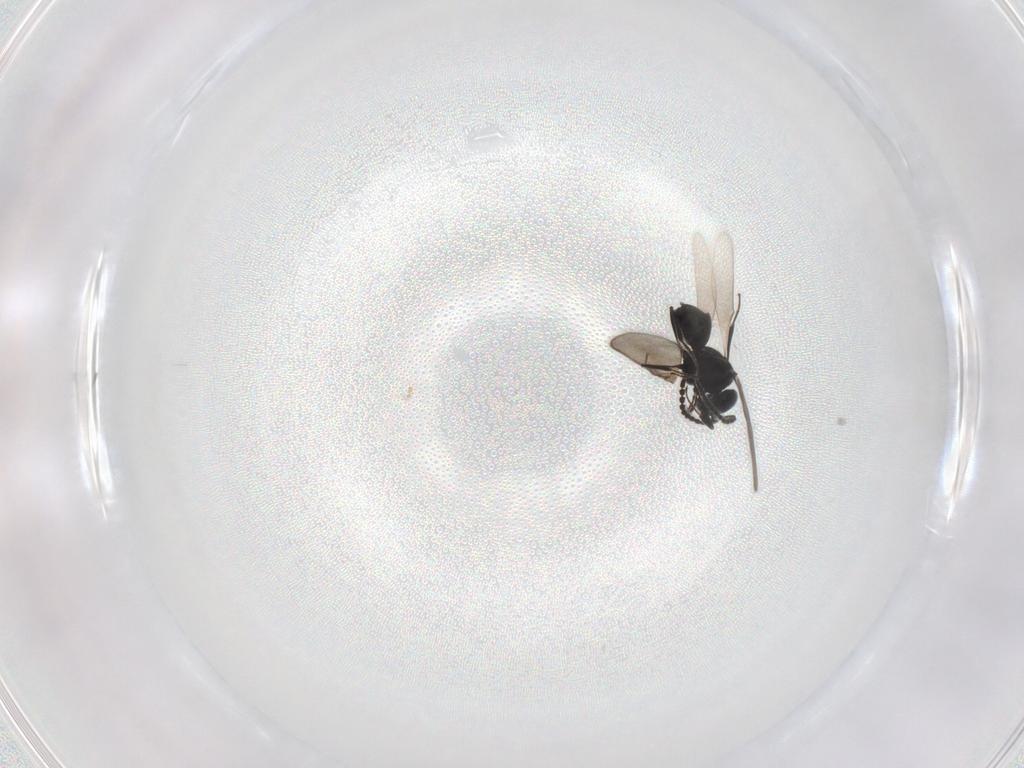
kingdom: Animalia
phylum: Arthropoda
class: Insecta
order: Hymenoptera
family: Scelionidae
